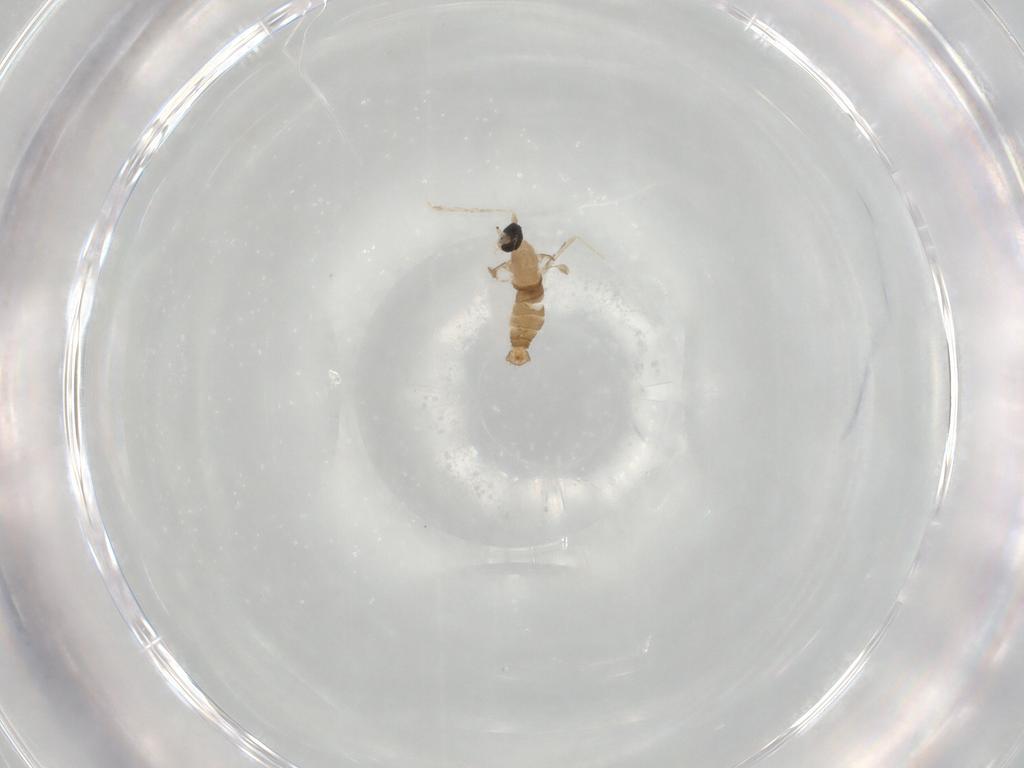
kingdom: Animalia
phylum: Arthropoda
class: Insecta
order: Diptera
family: Cecidomyiidae
